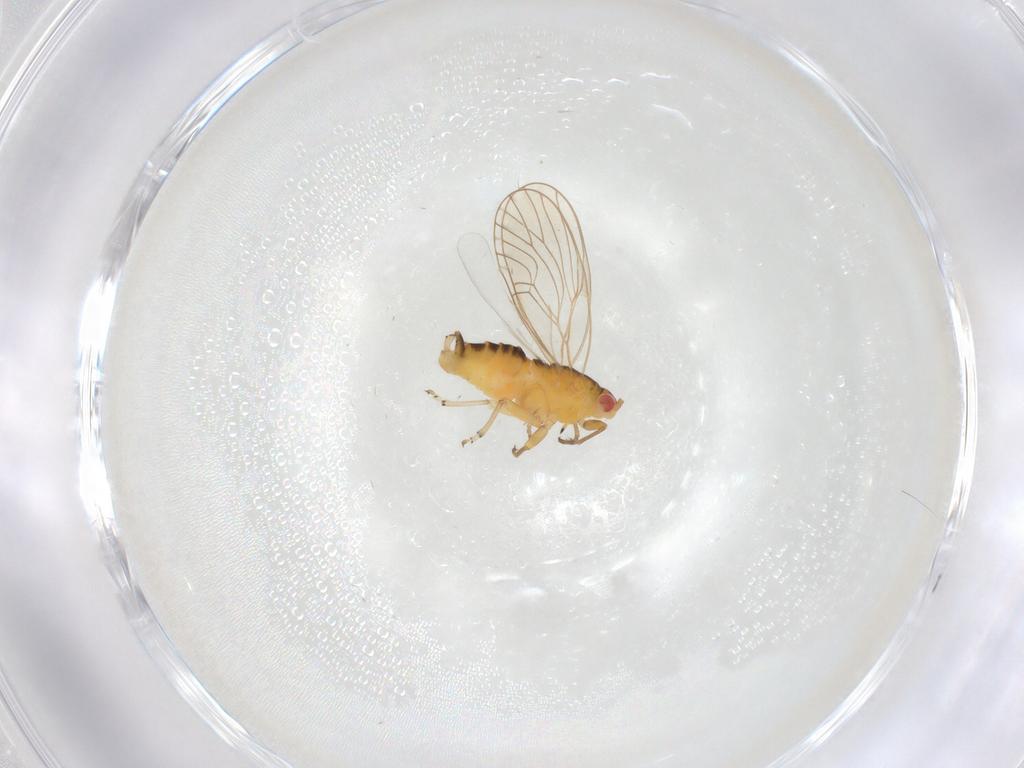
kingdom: Animalia
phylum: Arthropoda
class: Insecta
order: Hemiptera
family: Psyllidae
